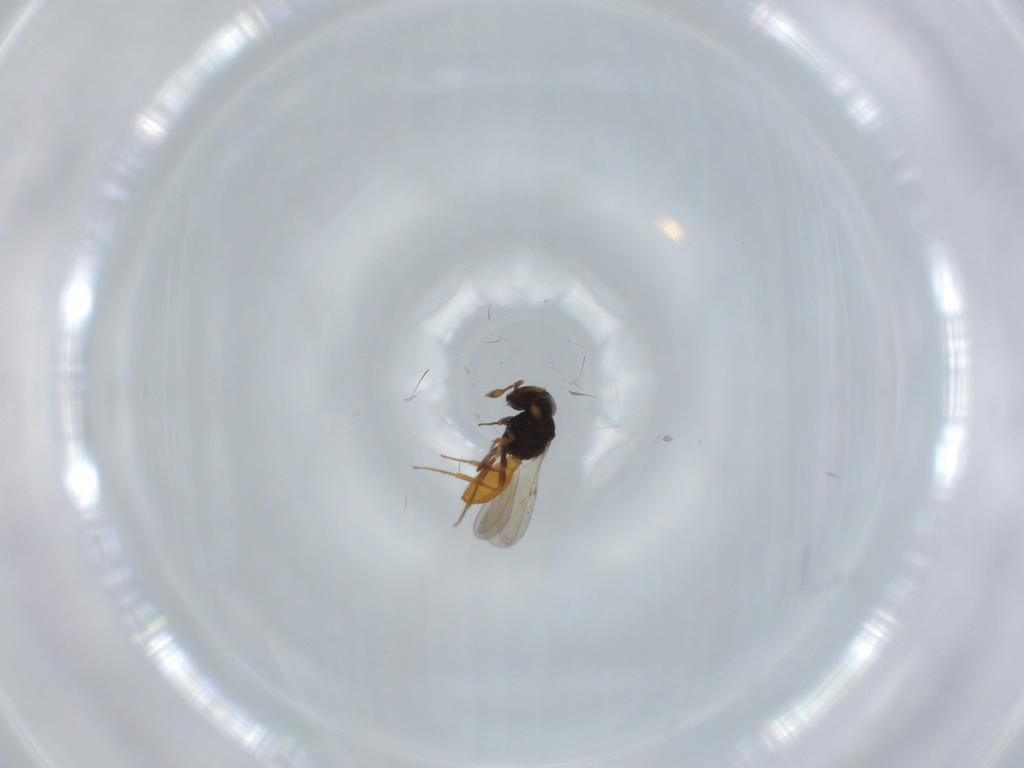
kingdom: Animalia
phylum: Arthropoda
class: Insecta
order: Hymenoptera
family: Scelionidae
